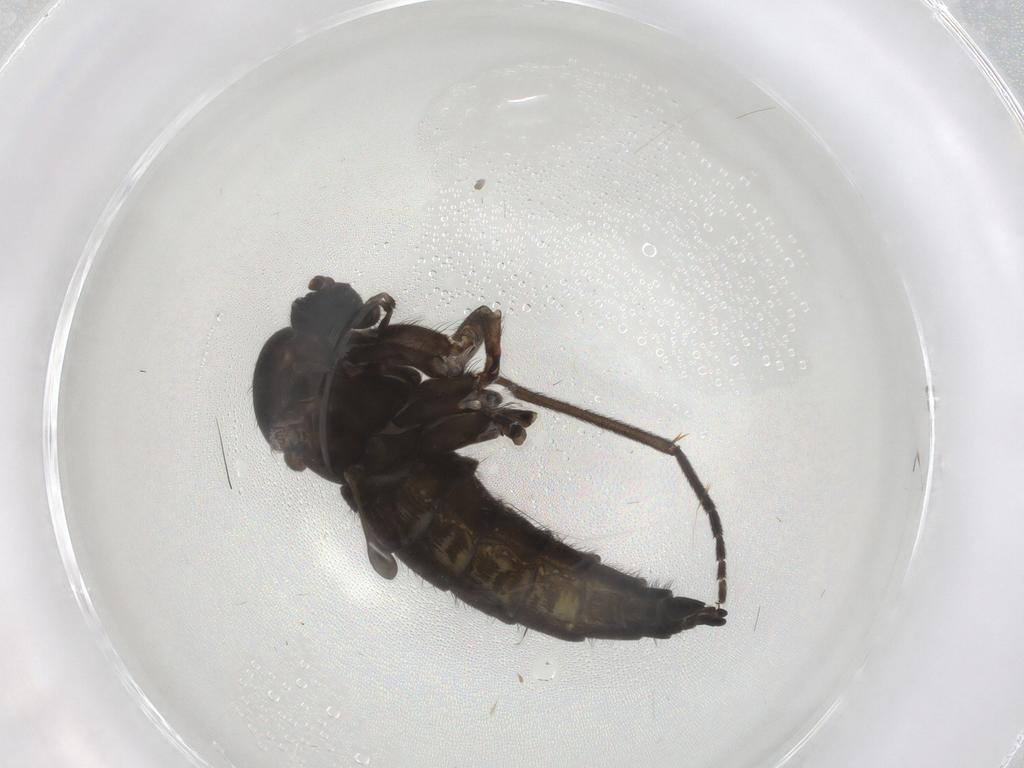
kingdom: Animalia
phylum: Arthropoda
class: Insecta
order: Diptera
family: Sciaridae
